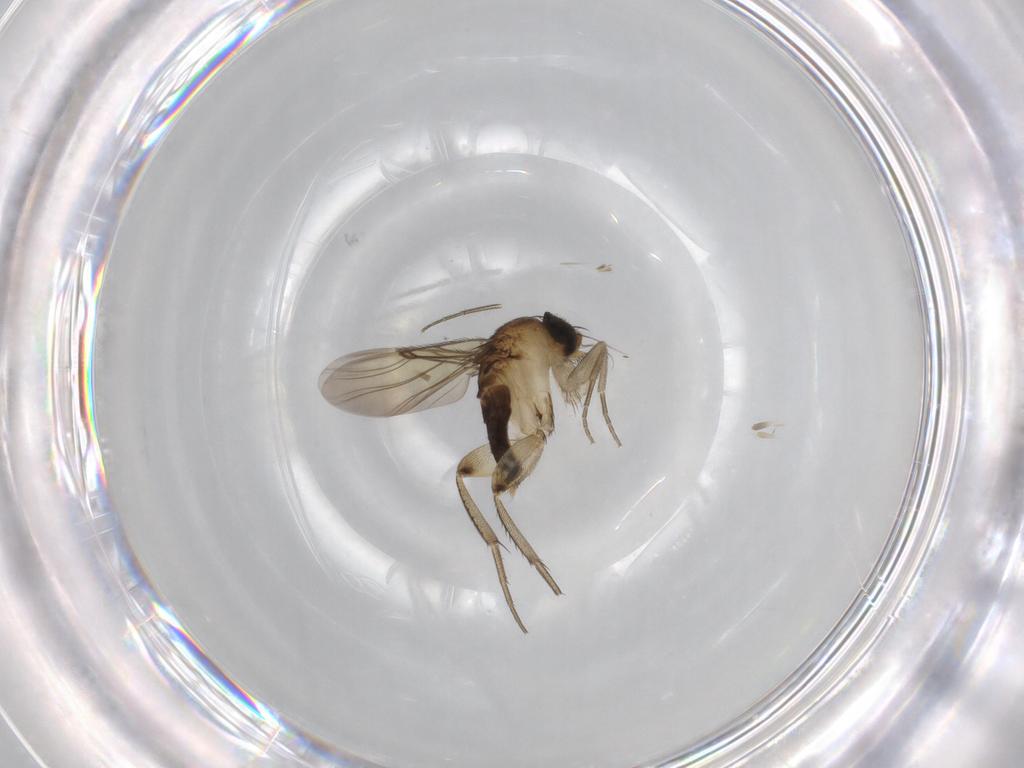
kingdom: Animalia
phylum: Arthropoda
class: Insecta
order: Diptera
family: Phoridae
